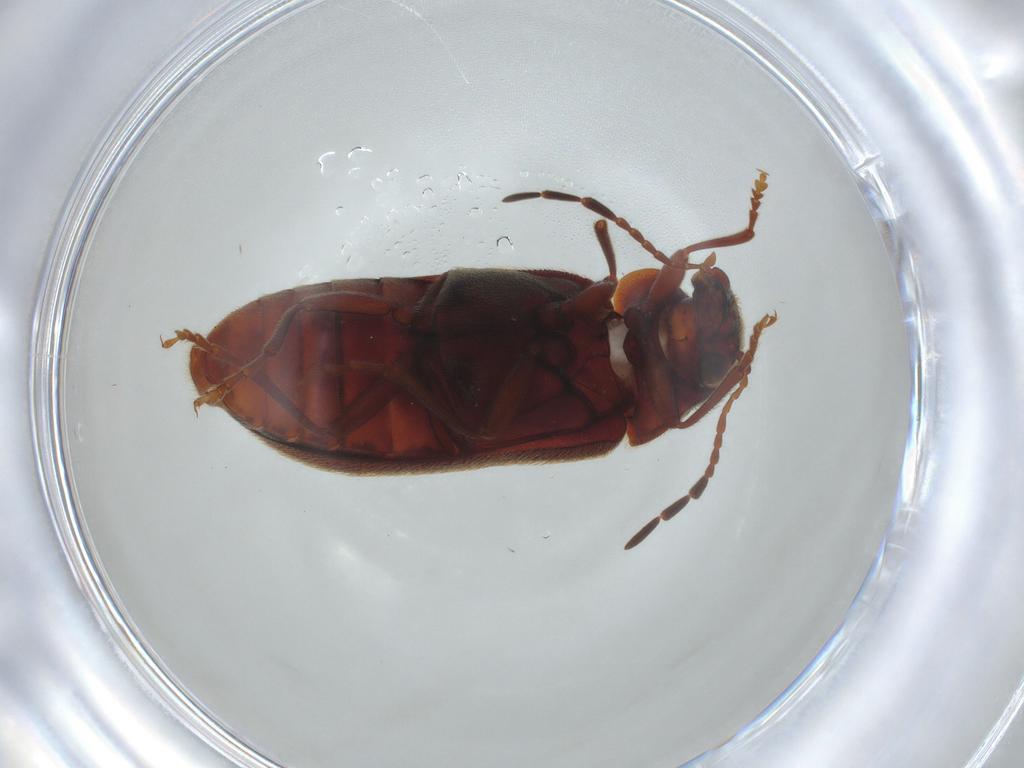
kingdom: Animalia
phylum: Arthropoda
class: Insecta
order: Coleoptera
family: Ptinidae
